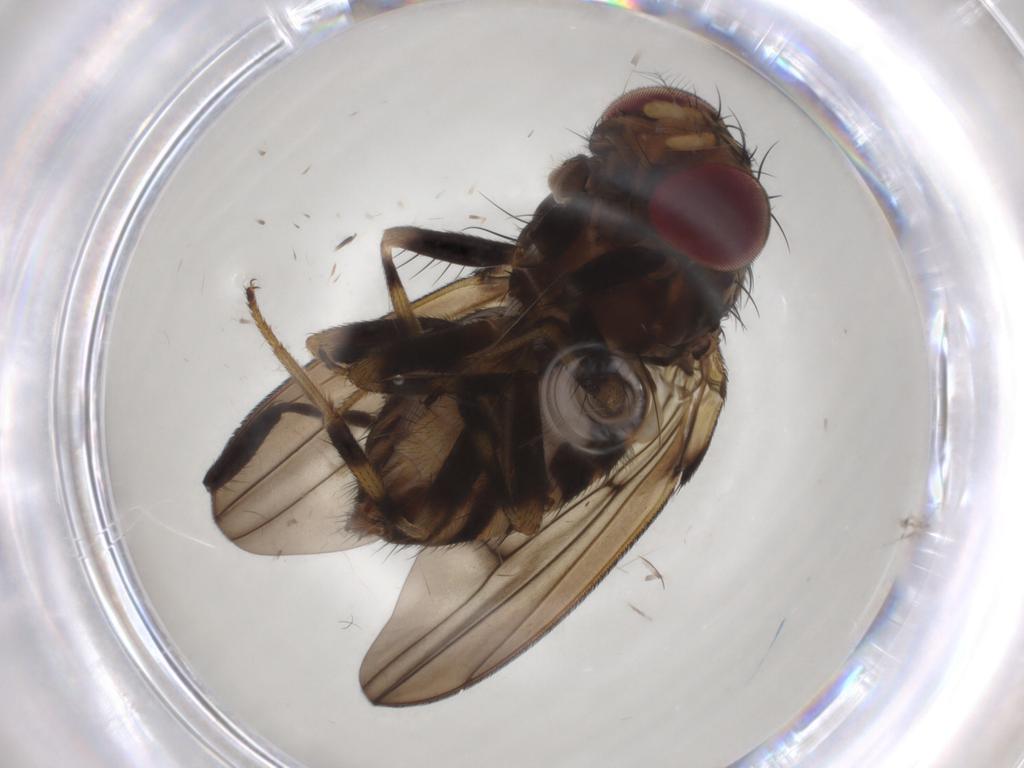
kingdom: Animalia
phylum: Arthropoda
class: Insecta
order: Diptera
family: Drosophilidae
